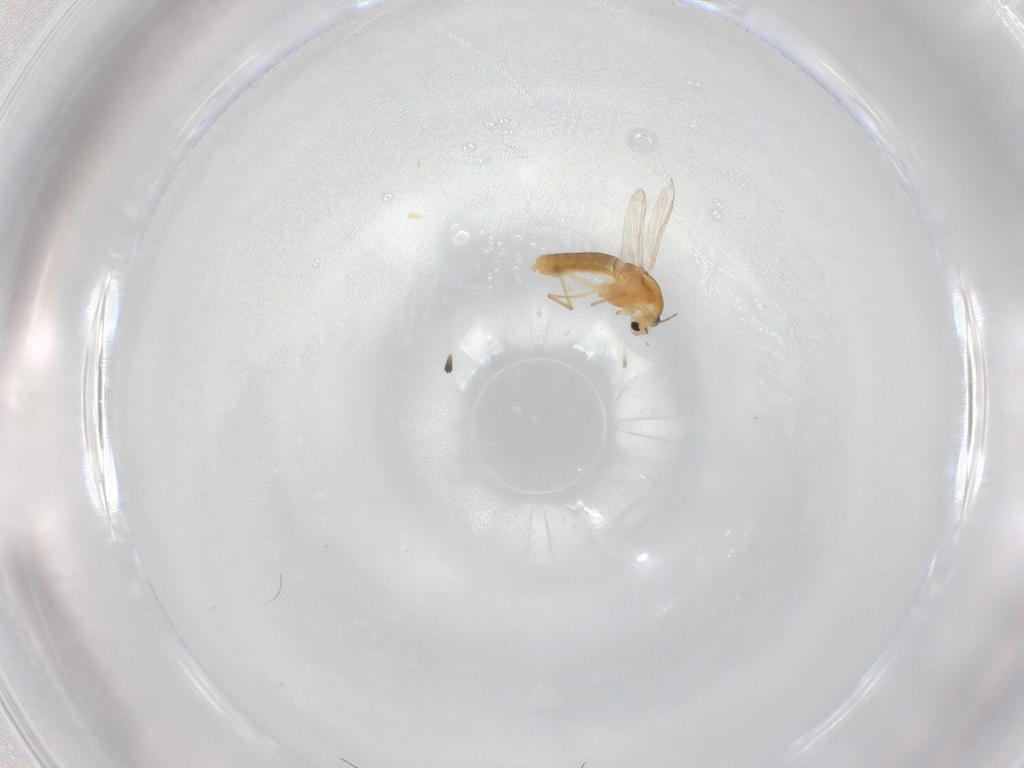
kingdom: Animalia
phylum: Arthropoda
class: Insecta
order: Diptera
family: Chironomidae
